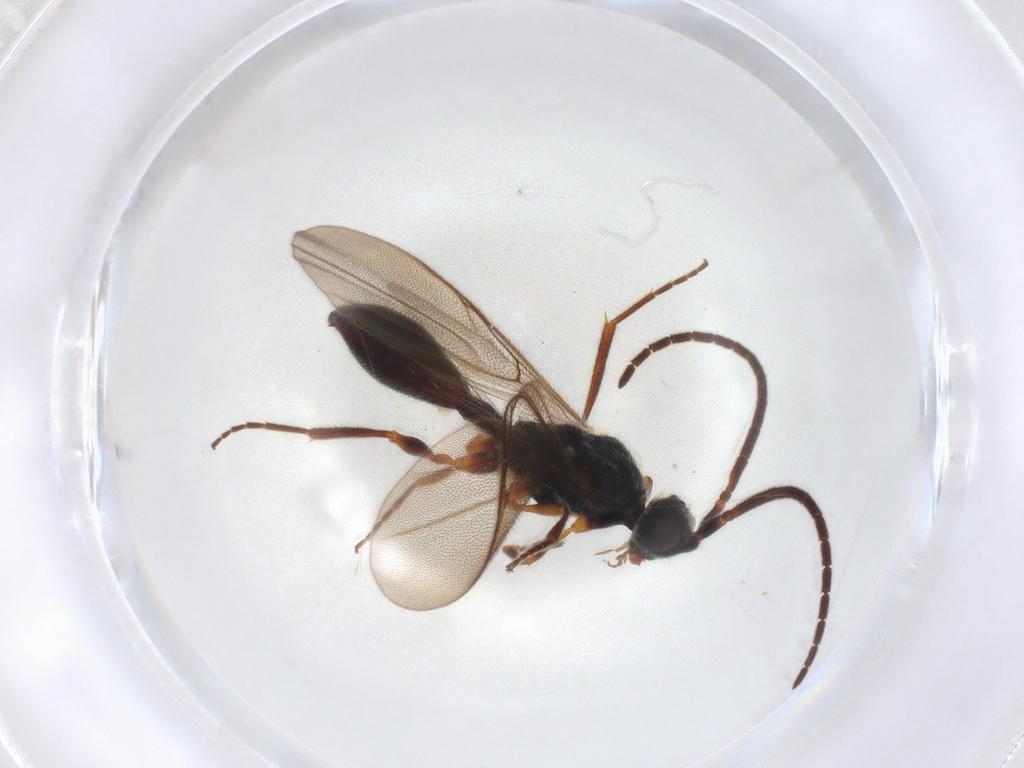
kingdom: Animalia
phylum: Arthropoda
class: Insecta
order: Hymenoptera
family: Diapriidae
